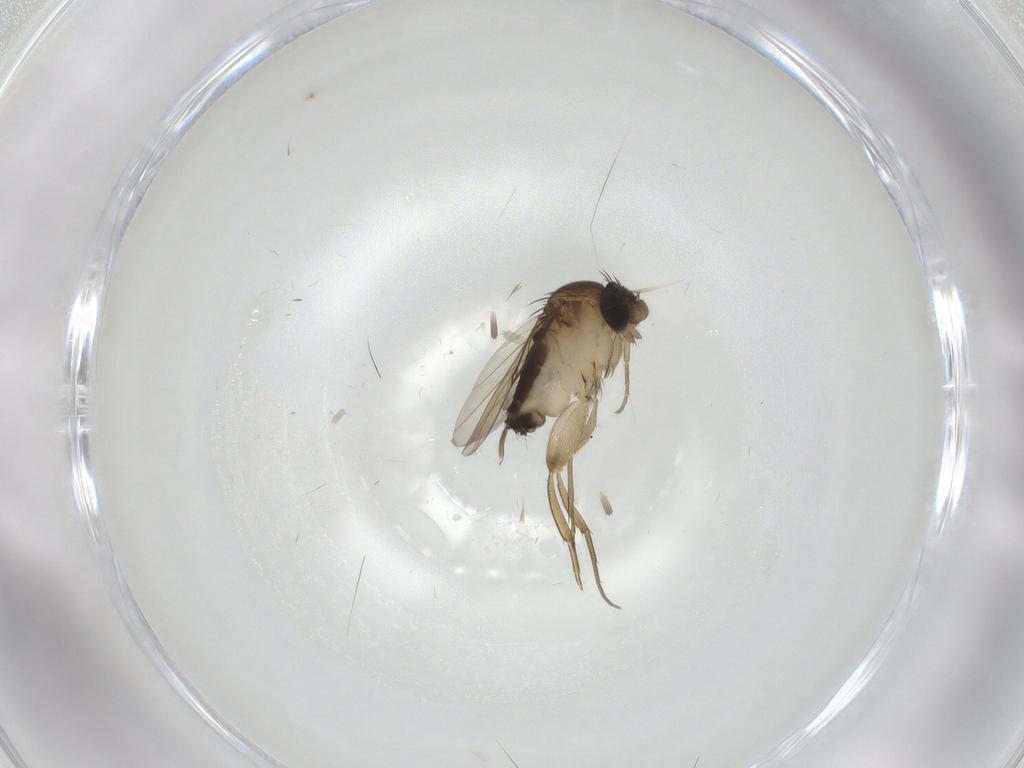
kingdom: Animalia
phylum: Arthropoda
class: Insecta
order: Diptera
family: Phoridae
